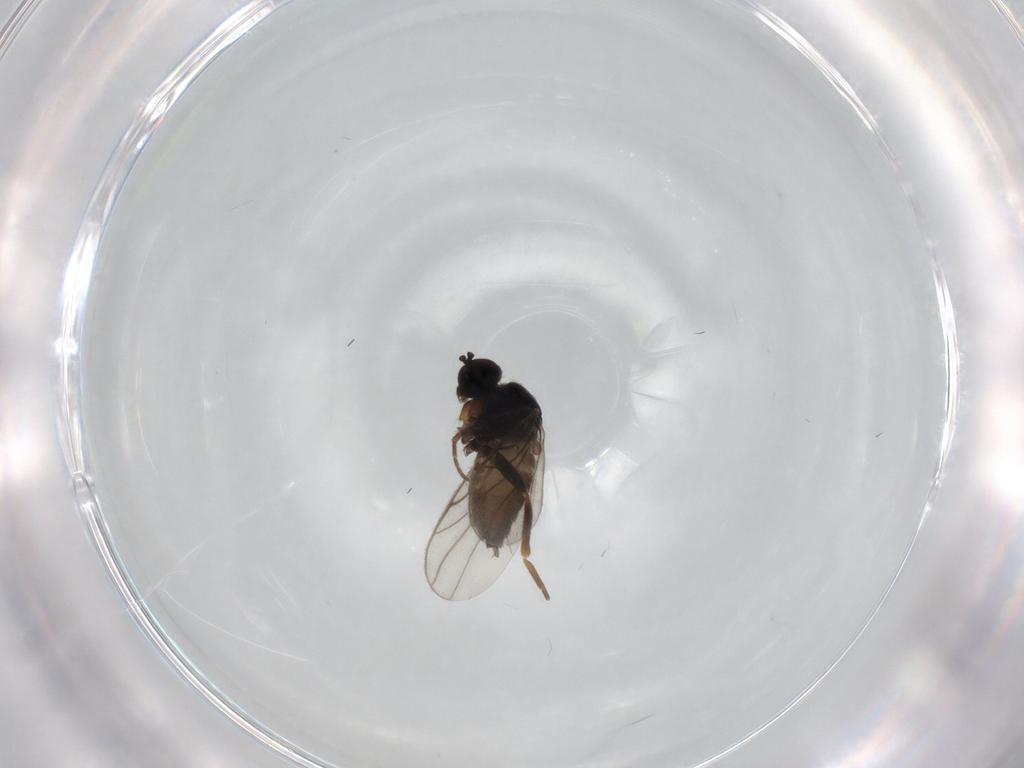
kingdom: Animalia
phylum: Arthropoda
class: Insecta
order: Diptera
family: Hybotidae
